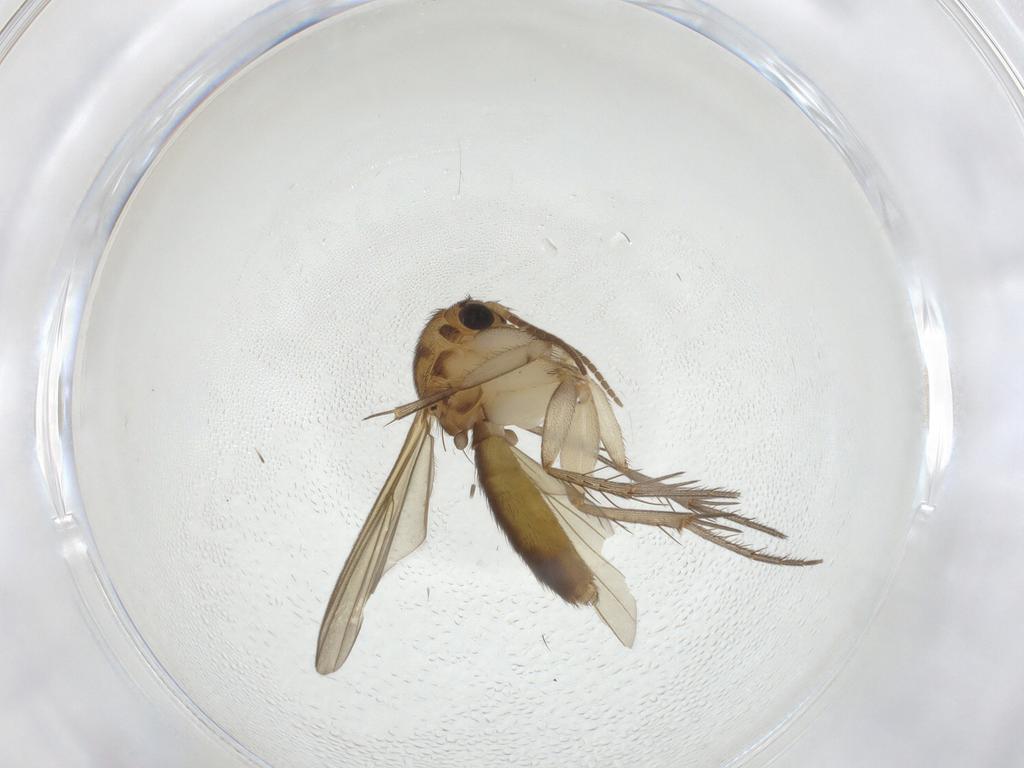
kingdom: Animalia
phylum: Arthropoda
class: Insecta
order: Diptera
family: Mycetophilidae
